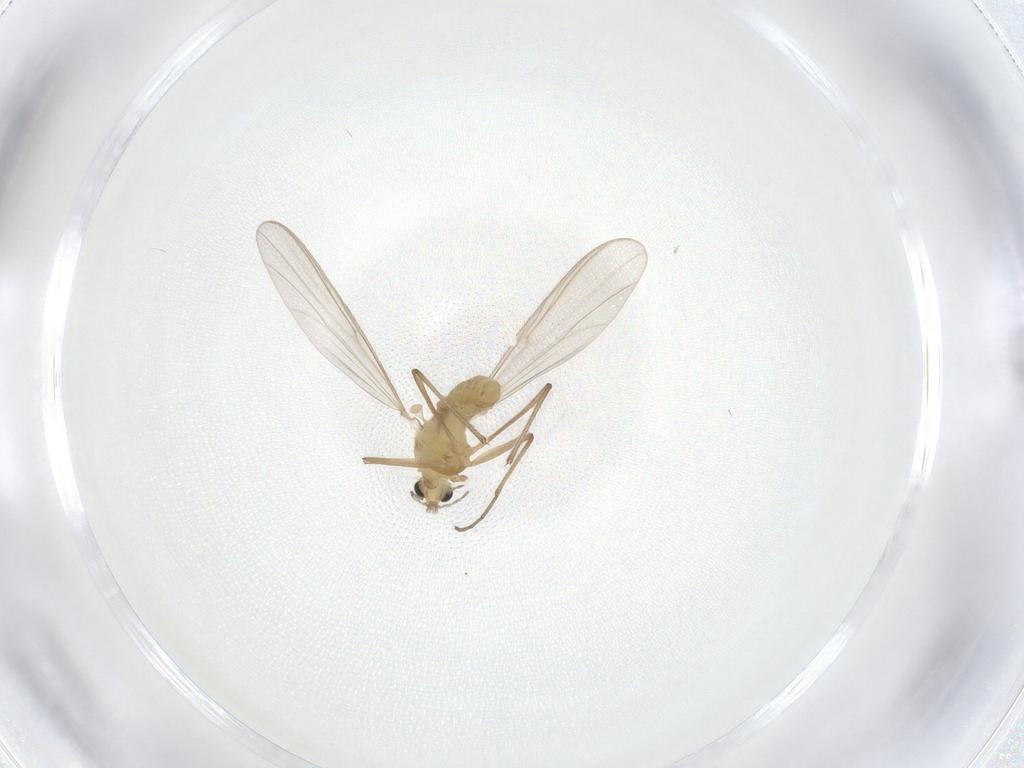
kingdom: Animalia
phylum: Arthropoda
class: Insecta
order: Diptera
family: Chironomidae
